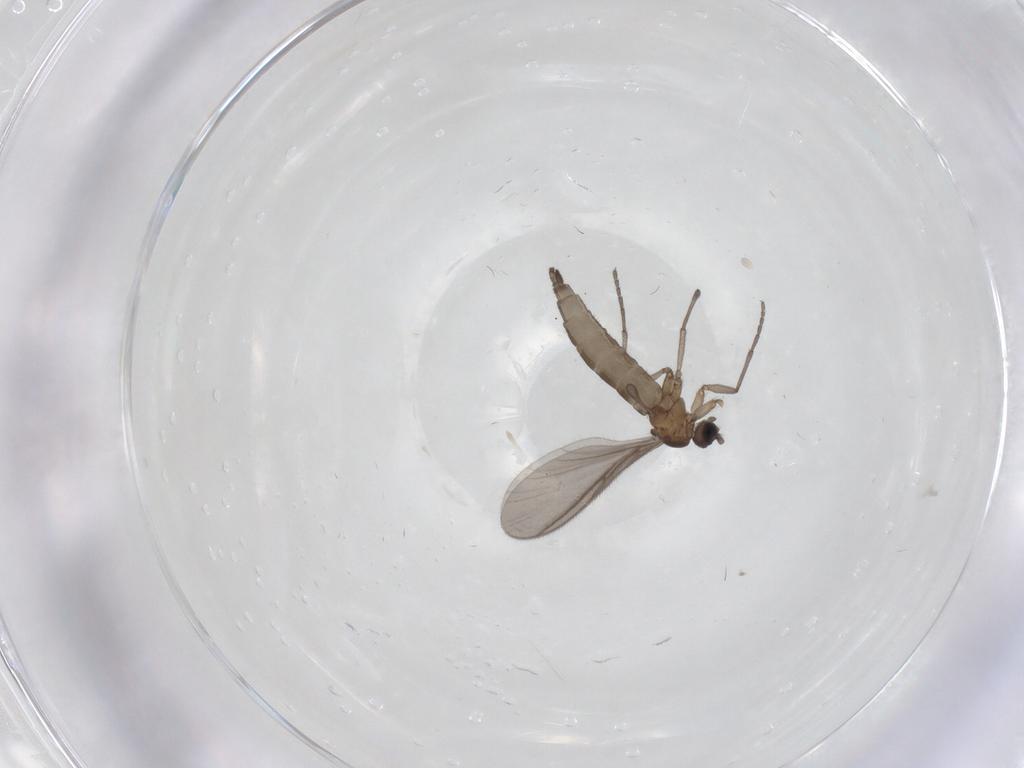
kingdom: Animalia
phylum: Arthropoda
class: Insecta
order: Diptera
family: Sciaridae
